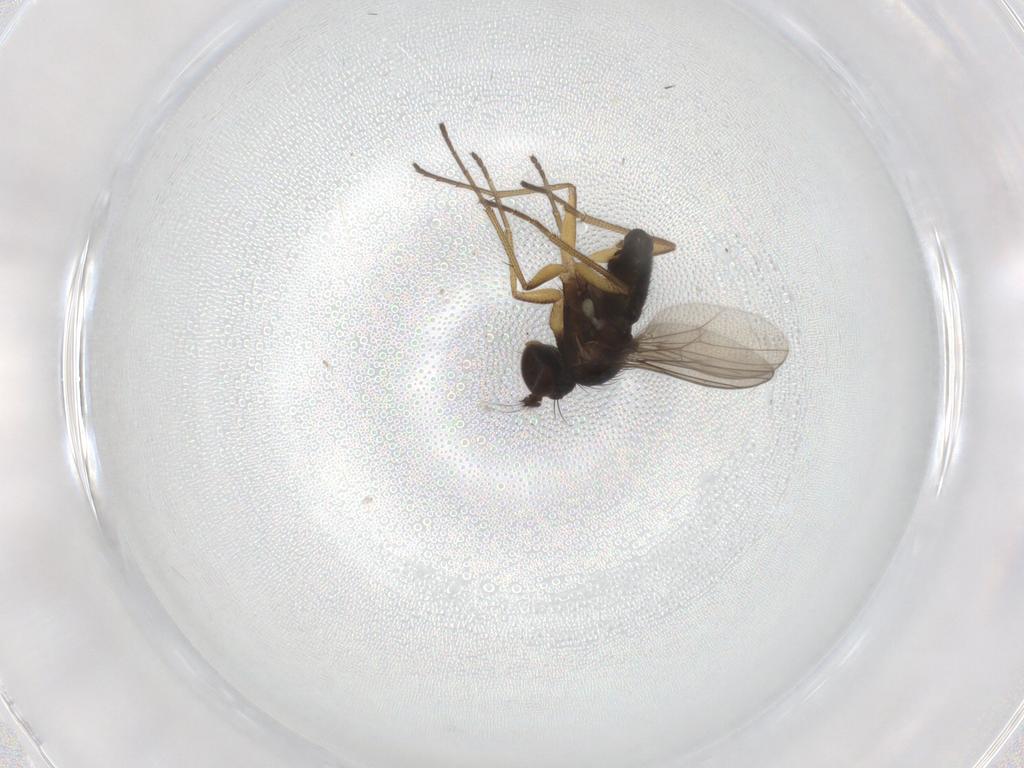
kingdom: Animalia
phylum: Arthropoda
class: Insecta
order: Diptera
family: Dolichopodidae
